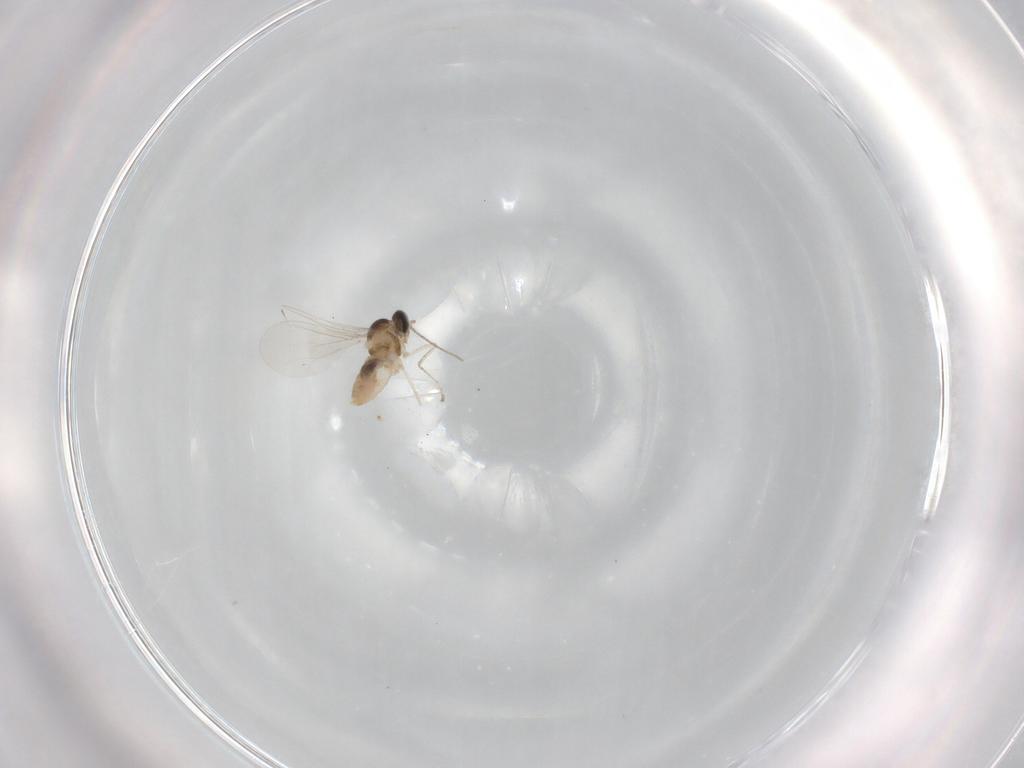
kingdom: Animalia
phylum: Arthropoda
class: Insecta
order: Diptera
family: Cecidomyiidae
